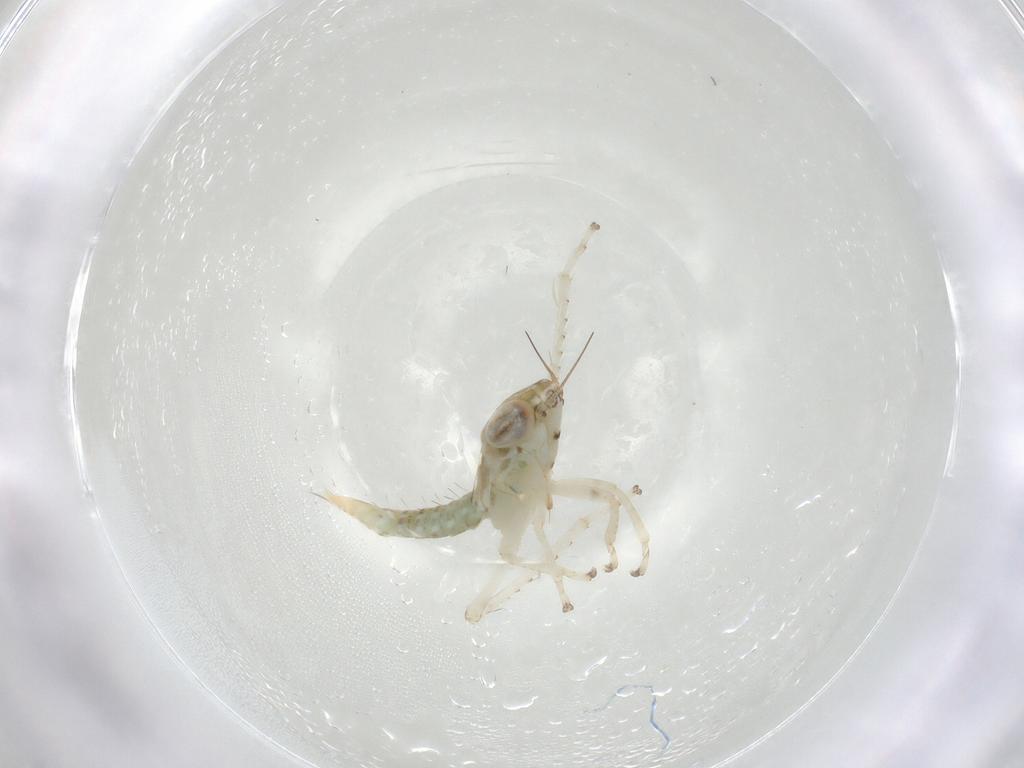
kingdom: Animalia
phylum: Arthropoda
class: Insecta
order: Hemiptera
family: Cicadellidae
